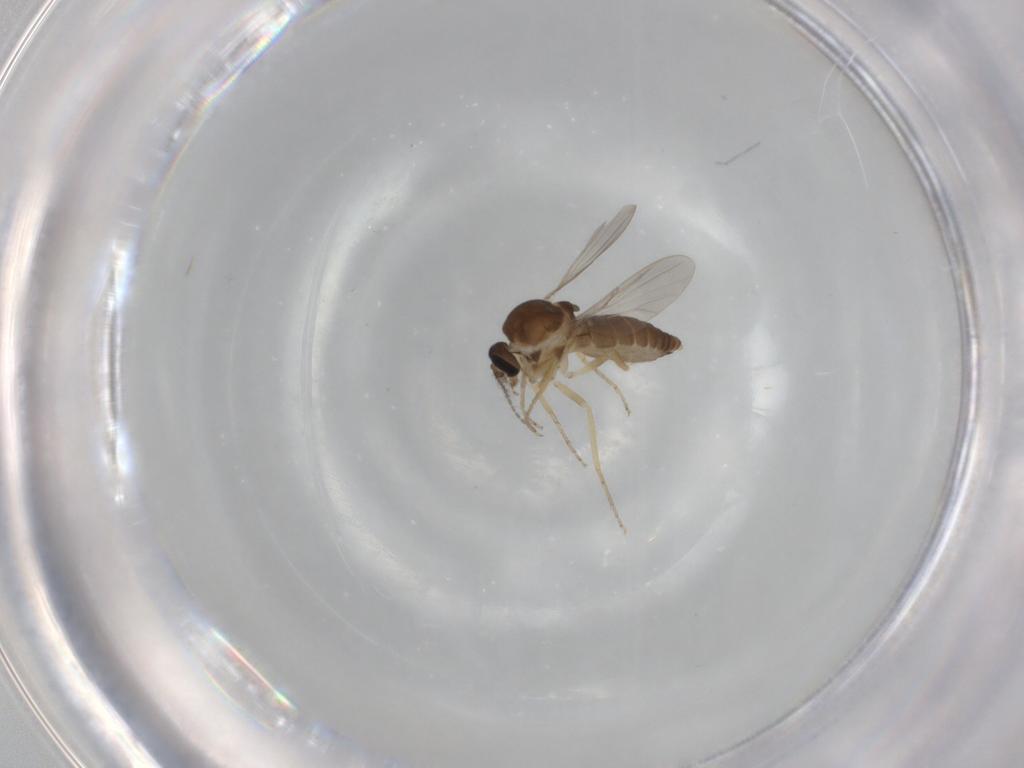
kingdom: Animalia
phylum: Arthropoda
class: Insecta
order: Diptera
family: Ceratopogonidae
